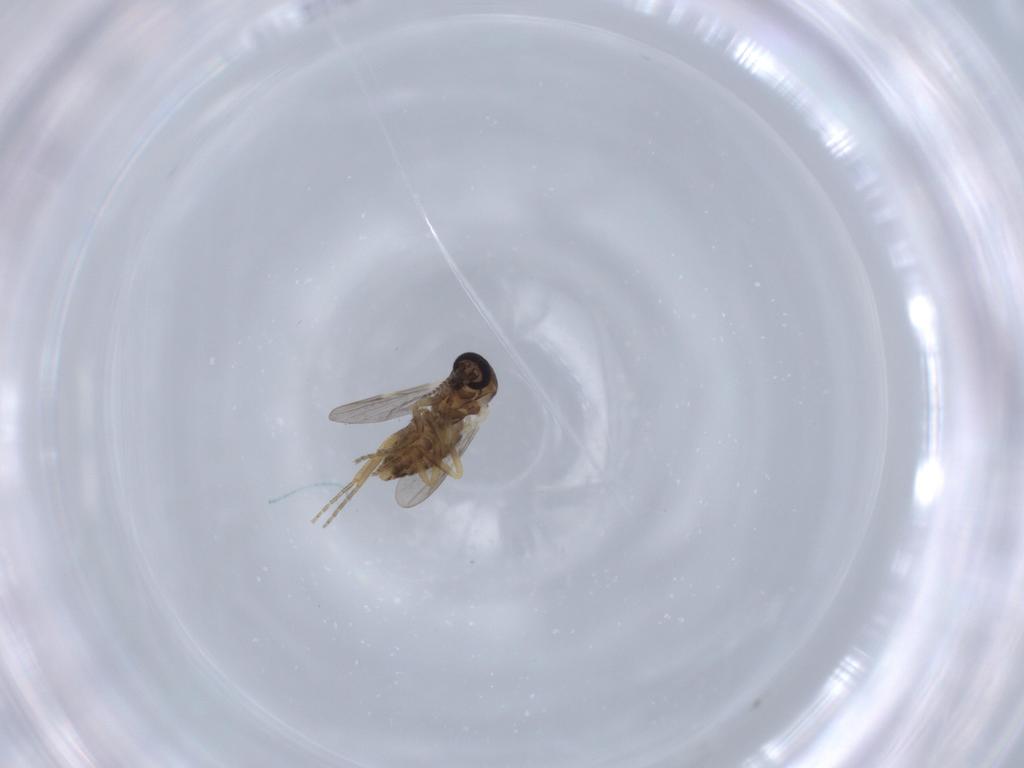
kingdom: Animalia
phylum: Arthropoda
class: Insecta
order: Diptera
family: Ceratopogonidae
